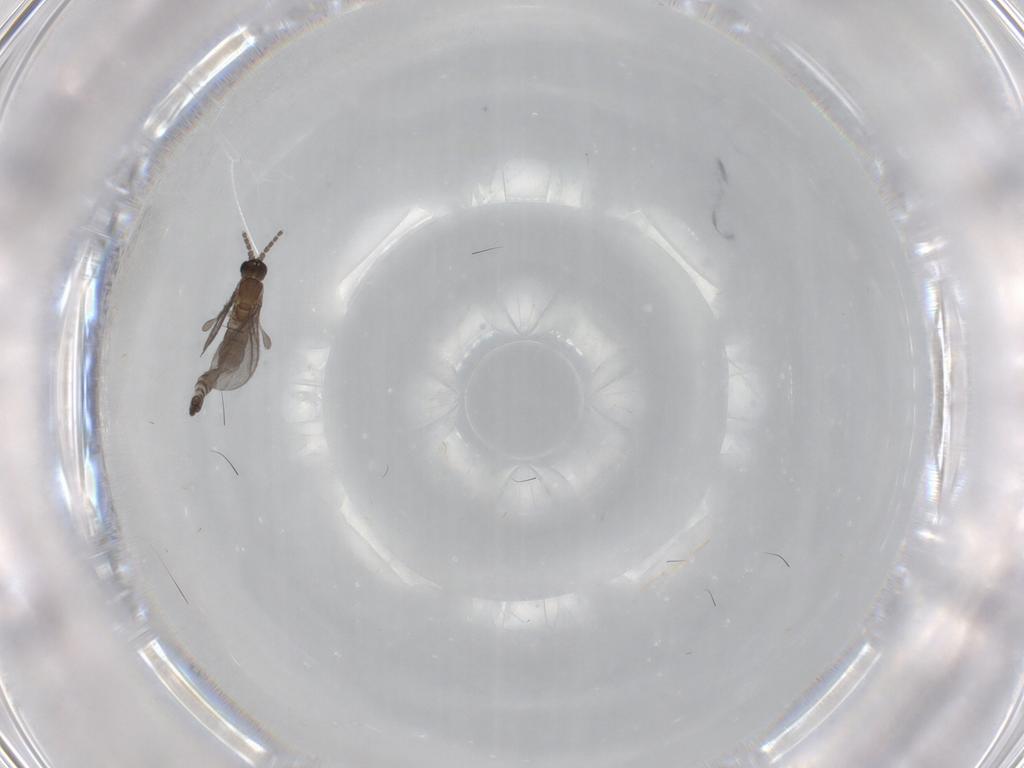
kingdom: Animalia
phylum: Arthropoda
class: Insecta
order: Diptera
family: Sciaridae
